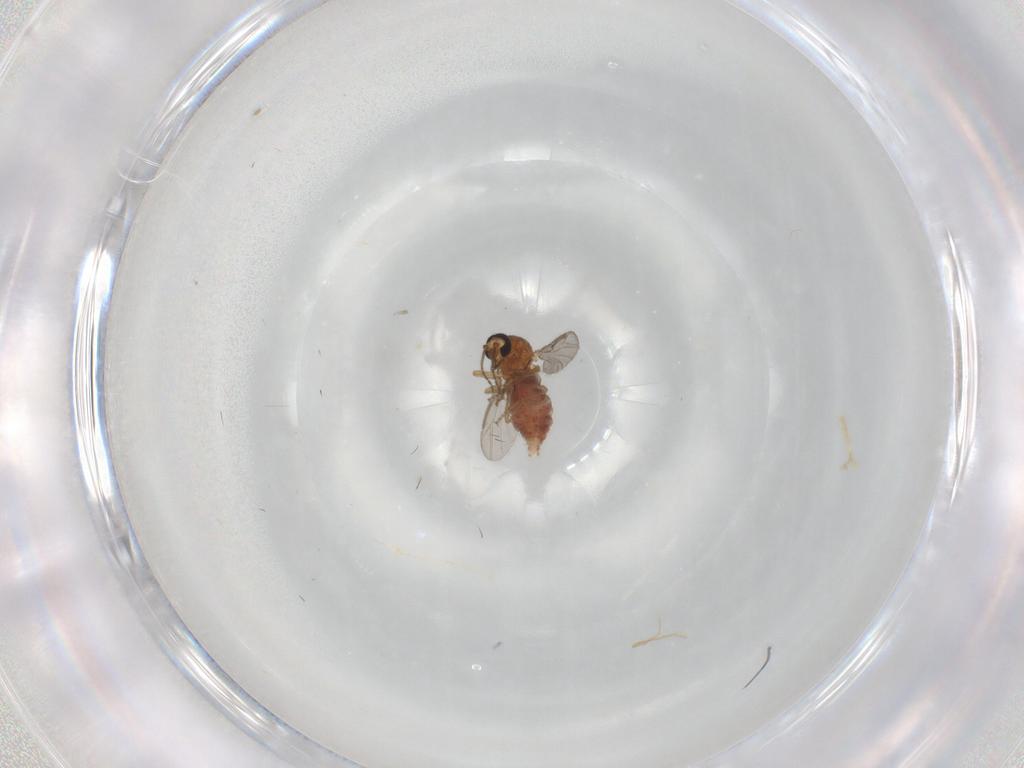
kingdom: Animalia
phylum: Arthropoda
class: Insecta
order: Diptera
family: Ceratopogonidae
